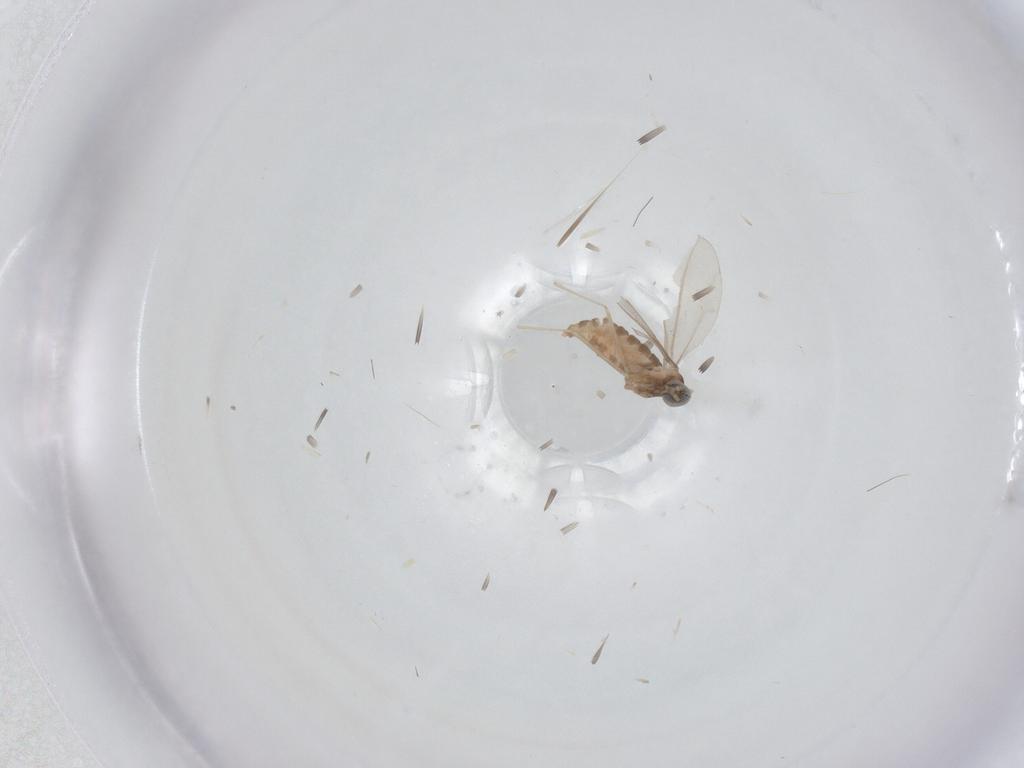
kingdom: Animalia
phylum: Arthropoda
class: Insecta
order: Diptera
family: Cecidomyiidae
